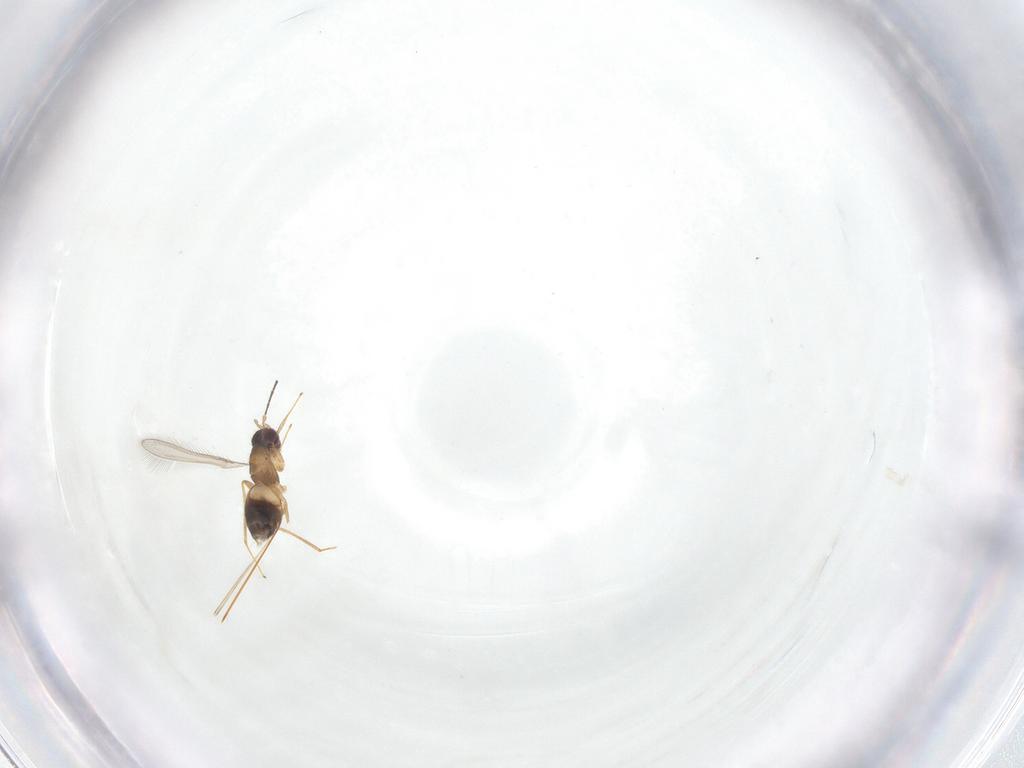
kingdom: Animalia
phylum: Arthropoda
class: Insecta
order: Hymenoptera
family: Mymaridae
